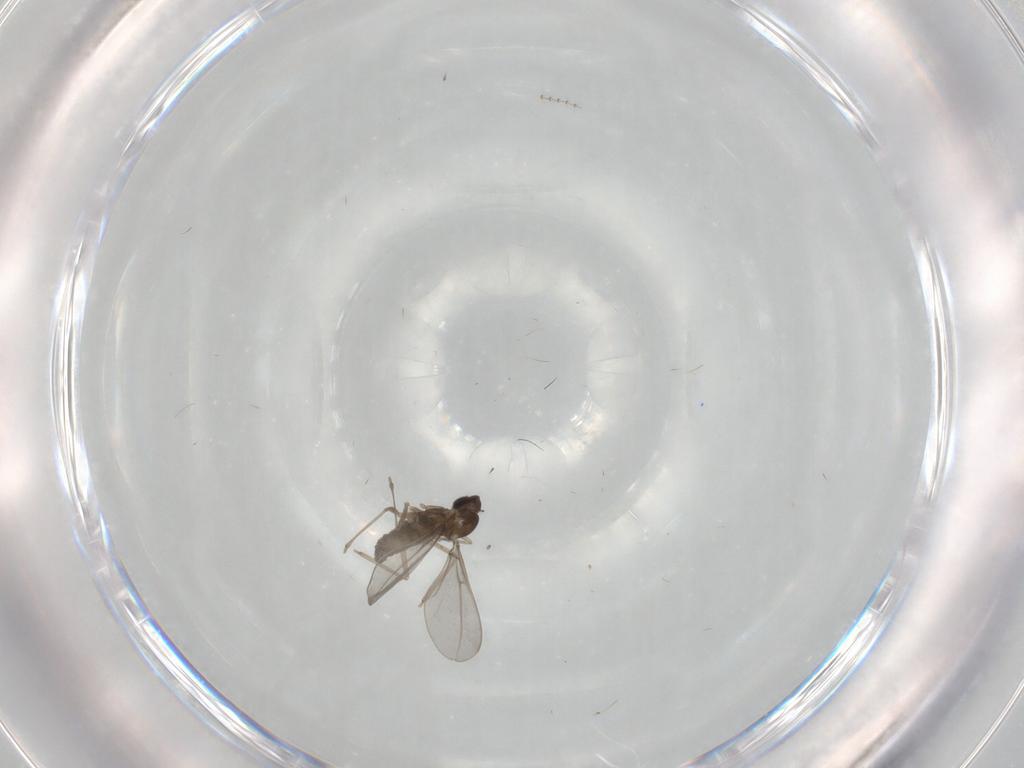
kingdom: Animalia
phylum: Arthropoda
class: Insecta
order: Diptera
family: Cecidomyiidae
